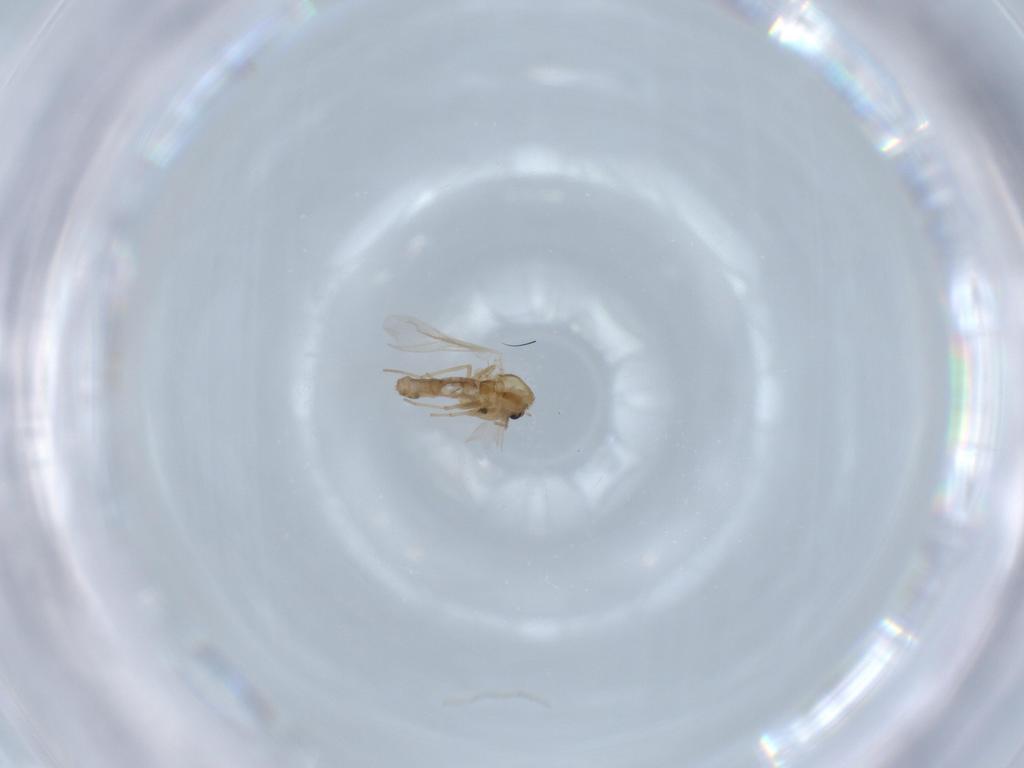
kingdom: Animalia
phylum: Arthropoda
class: Insecta
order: Diptera
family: Chironomidae
